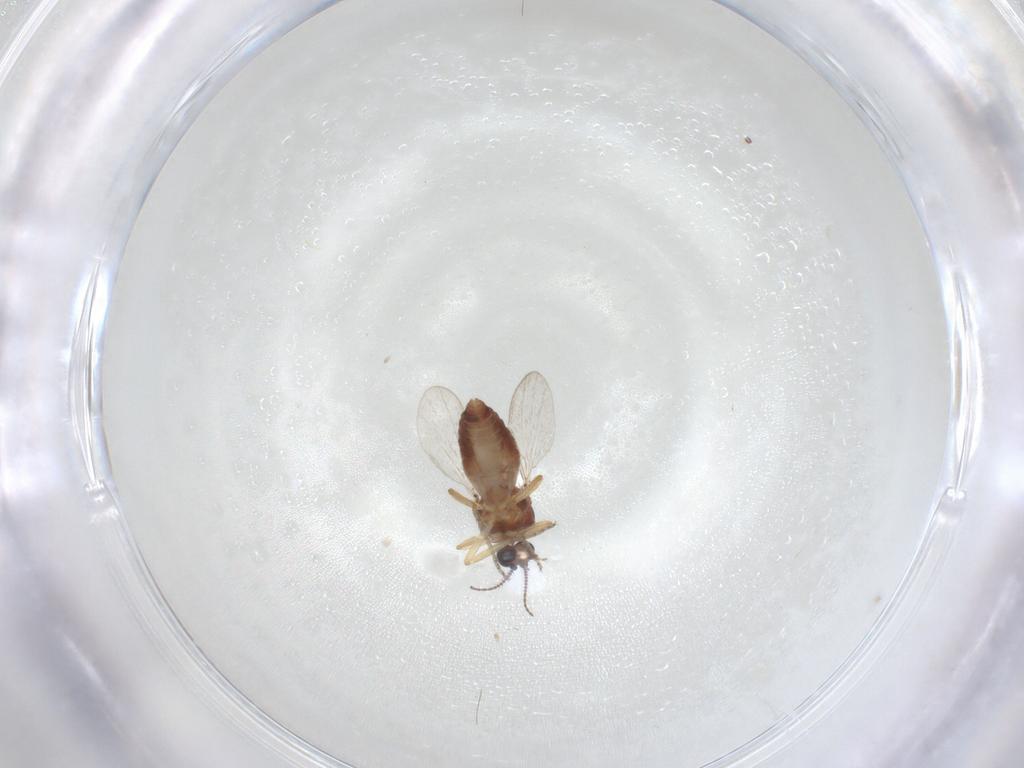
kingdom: Animalia
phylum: Arthropoda
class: Insecta
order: Diptera
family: Ceratopogonidae
